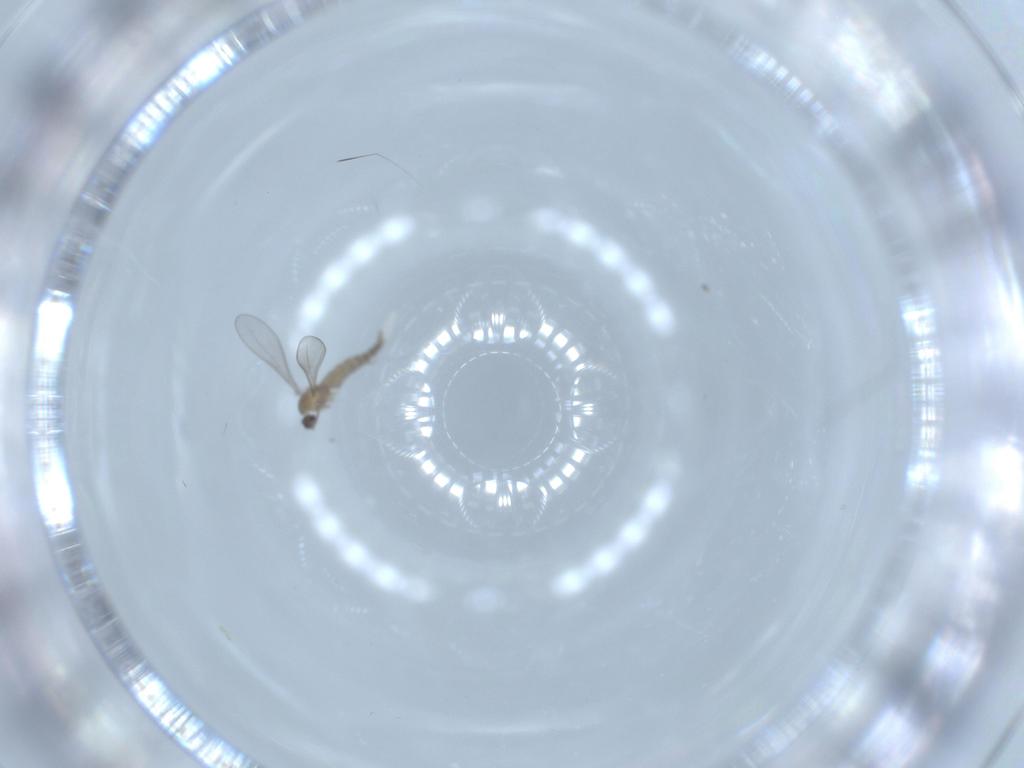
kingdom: Animalia
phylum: Arthropoda
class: Insecta
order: Diptera
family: Cecidomyiidae
